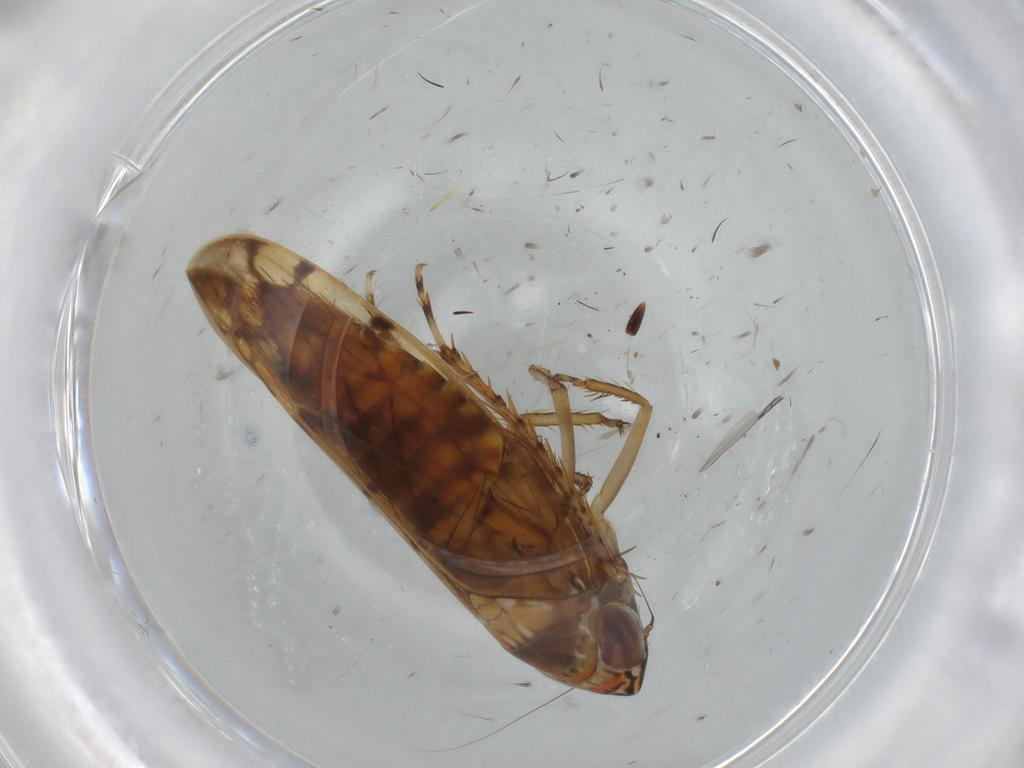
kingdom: Animalia
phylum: Arthropoda
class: Insecta
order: Hemiptera
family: Cicadellidae
